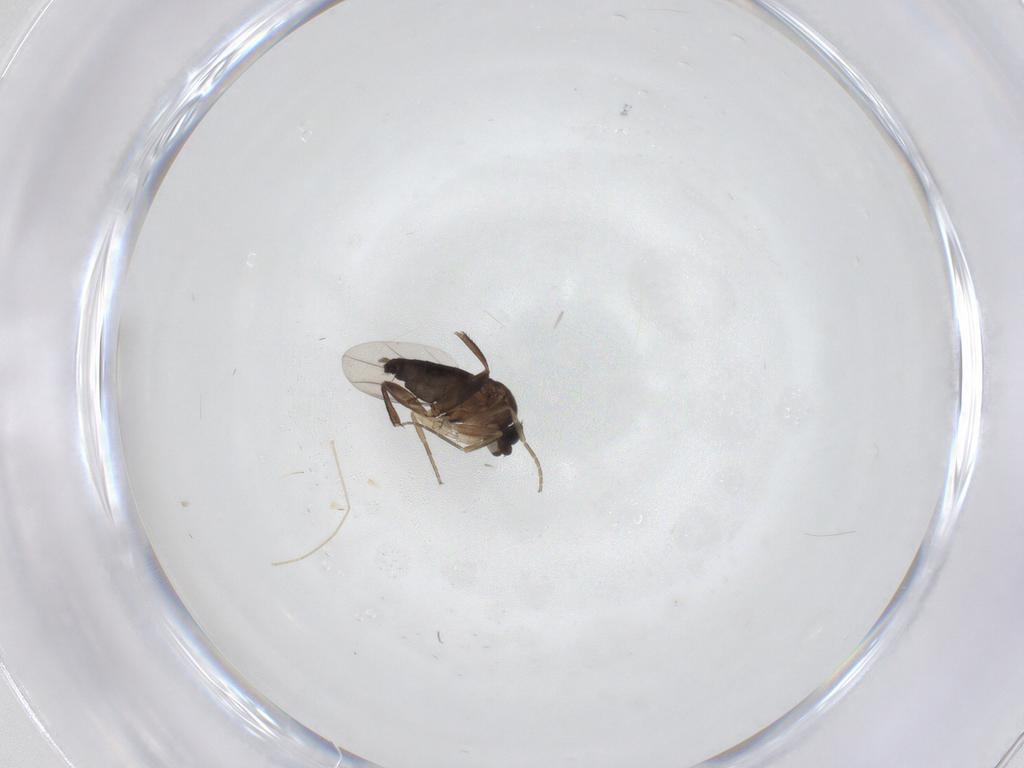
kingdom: Animalia
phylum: Arthropoda
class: Insecta
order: Diptera
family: Phoridae
